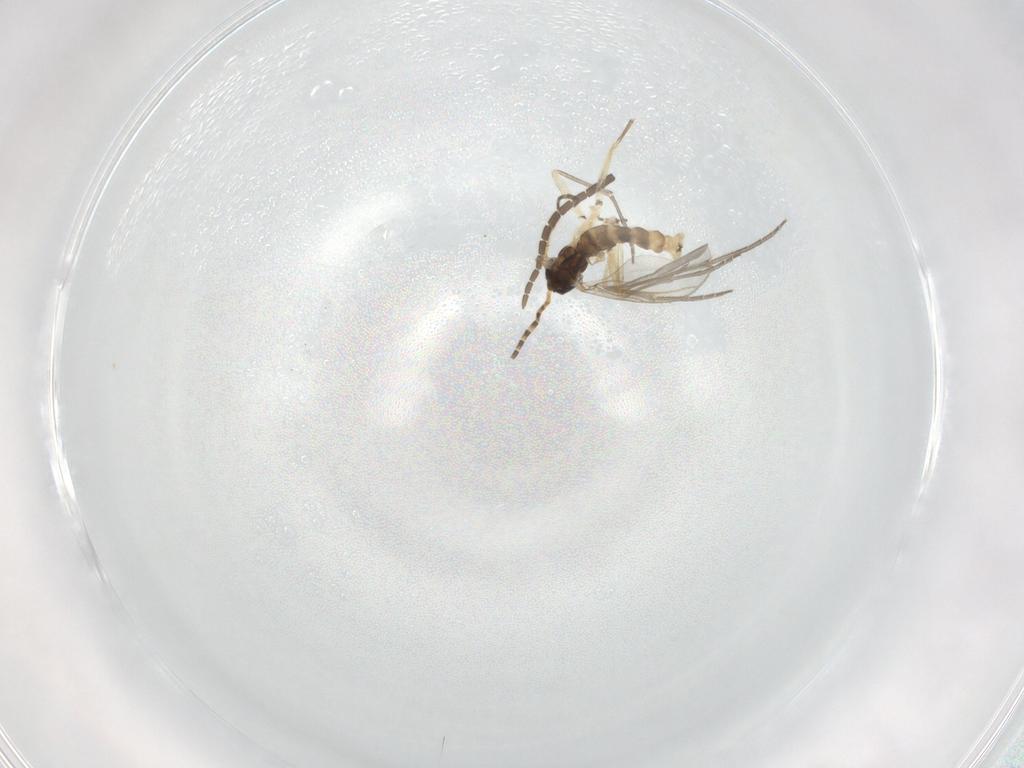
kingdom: Animalia
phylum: Arthropoda
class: Insecta
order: Diptera
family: Sciaridae
